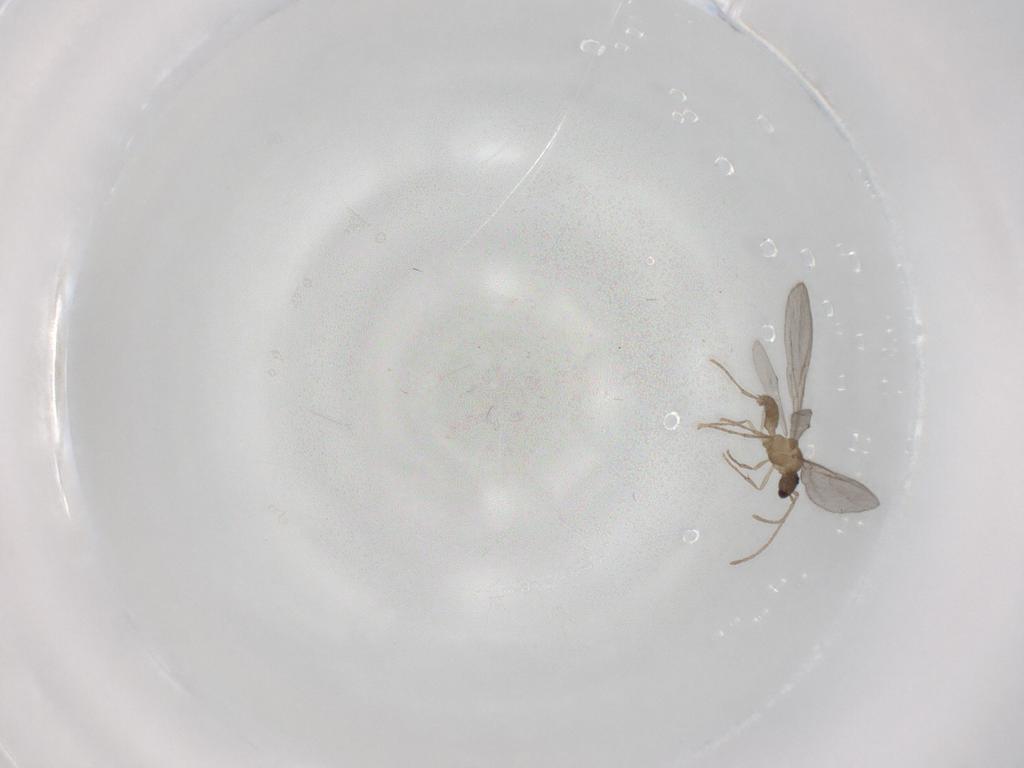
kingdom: Animalia
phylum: Arthropoda
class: Insecta
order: Hymenoptera
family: Formicidae
